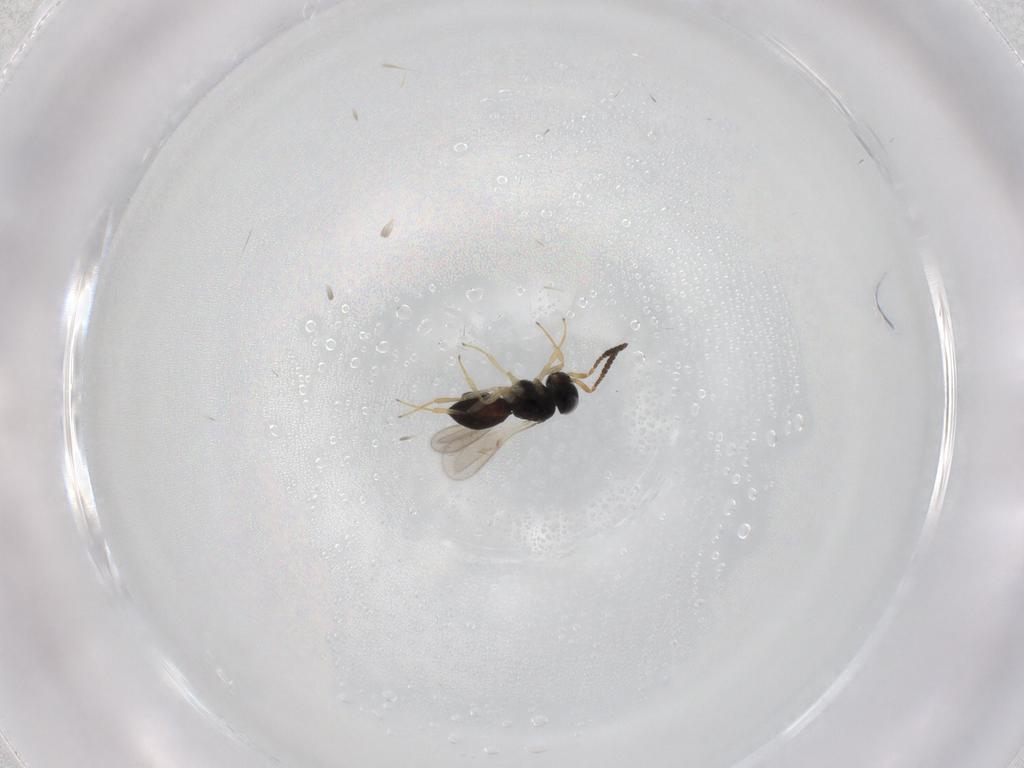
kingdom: Animalia
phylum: Arthropoda
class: Insecta
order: Hymenoptera
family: Scelionidae
